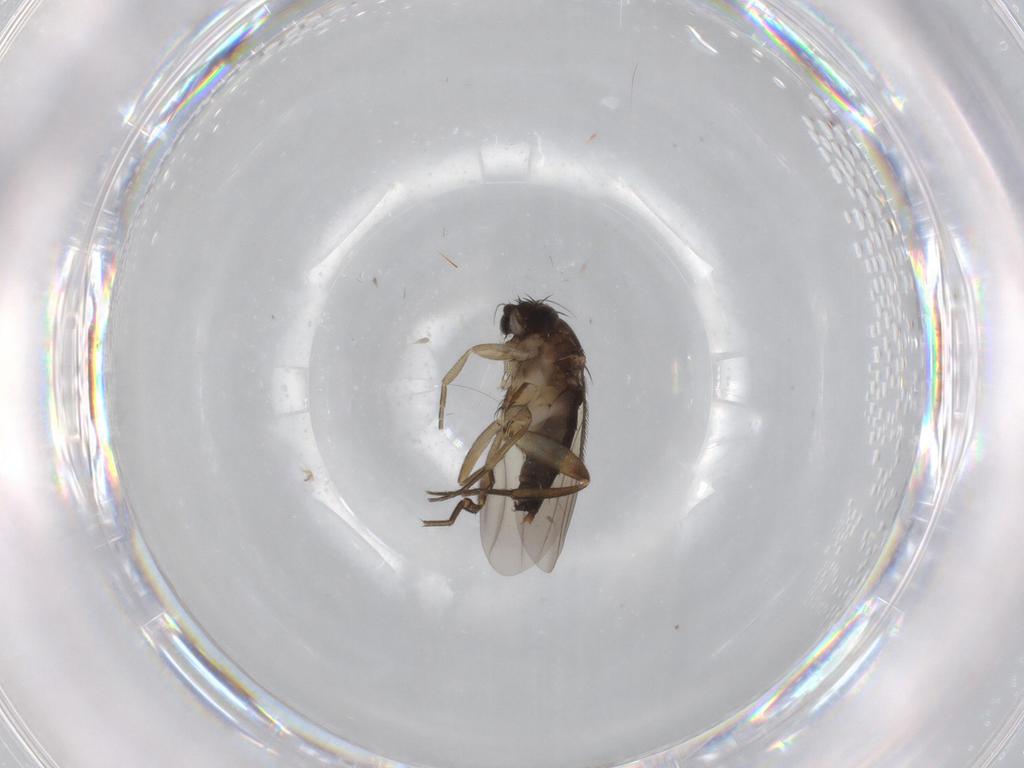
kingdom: Animalia
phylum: Arthropoda
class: Insecta
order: Diptera
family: Phoridae
